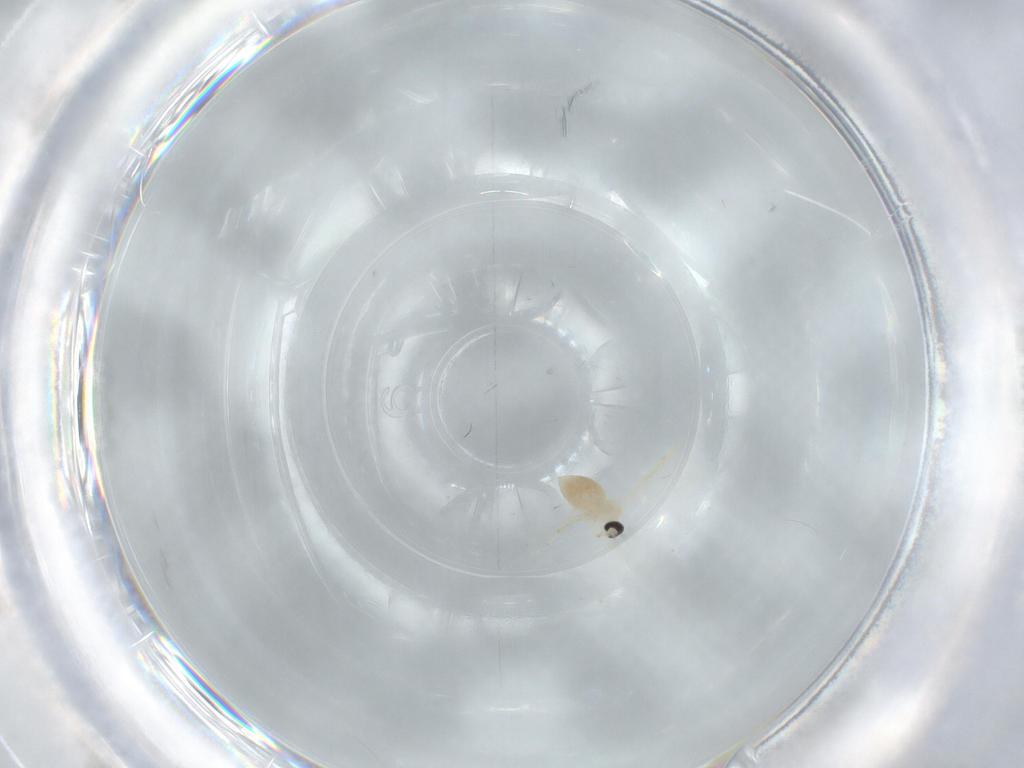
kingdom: Animalia
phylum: Arthropoda
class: Insecta
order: Diptera
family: Cecidomyiidae
